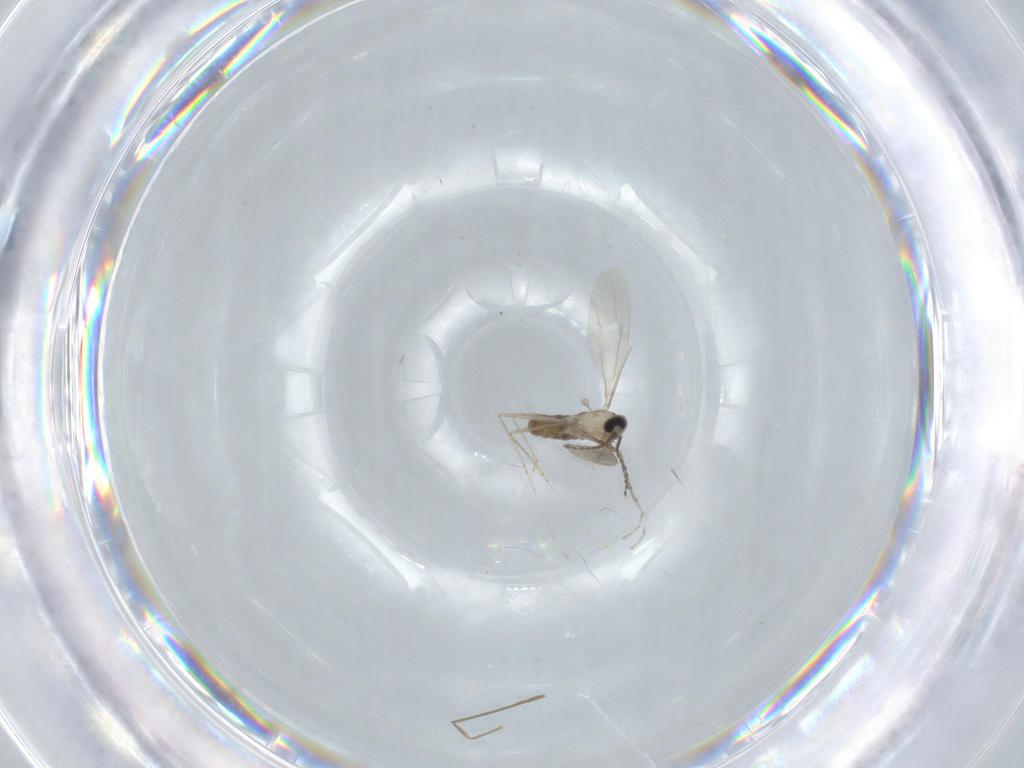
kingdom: Animalia
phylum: Arthropoda
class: Insecta
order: Diptera
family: Cecidomyiidae
